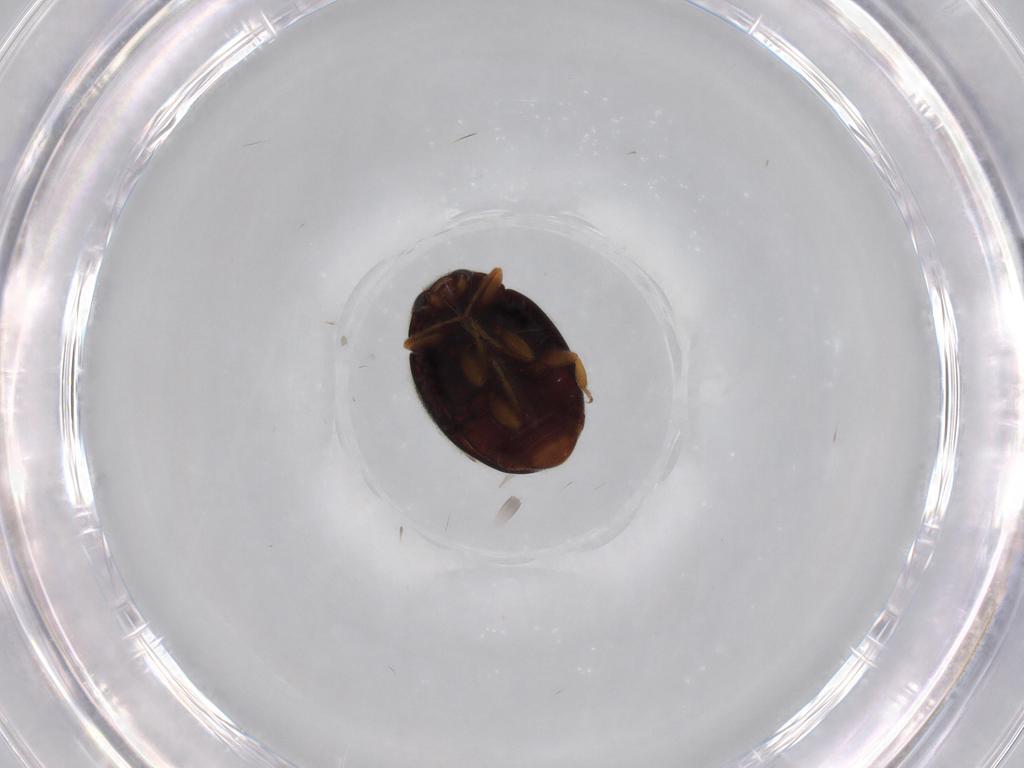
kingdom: Animalia
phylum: Arthropoda
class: Insecta
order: Coleoptera
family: Coccinellidae
